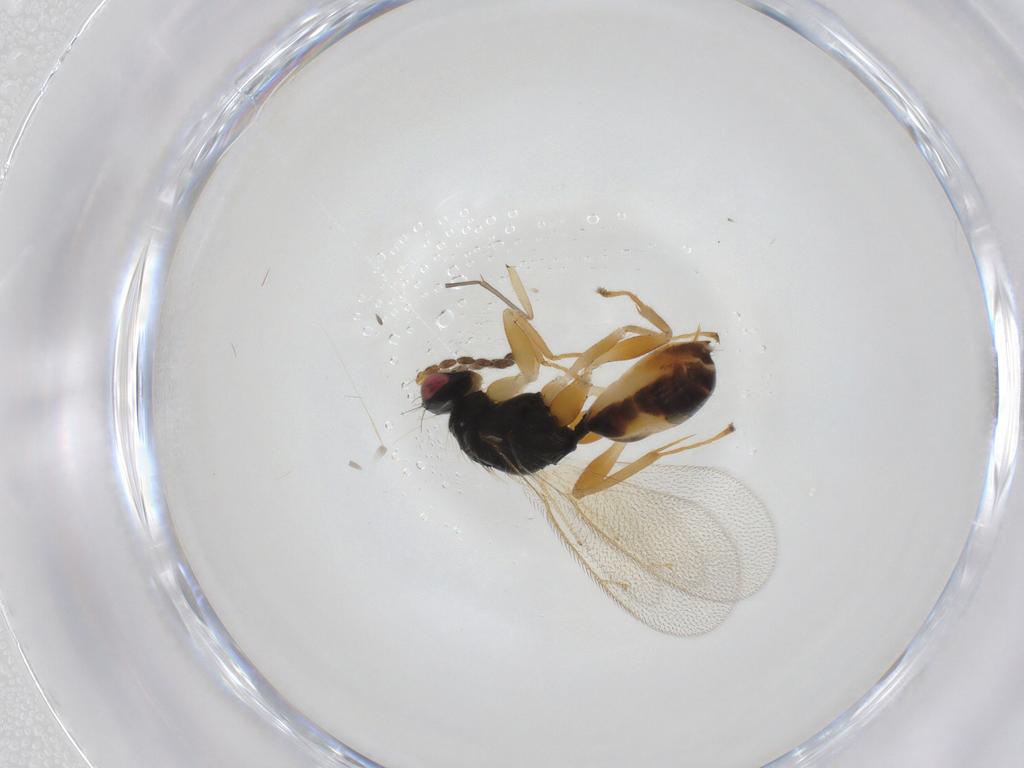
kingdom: Animalia
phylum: Arthropoda
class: Insecta
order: Hymenoptera
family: Eulophidae
